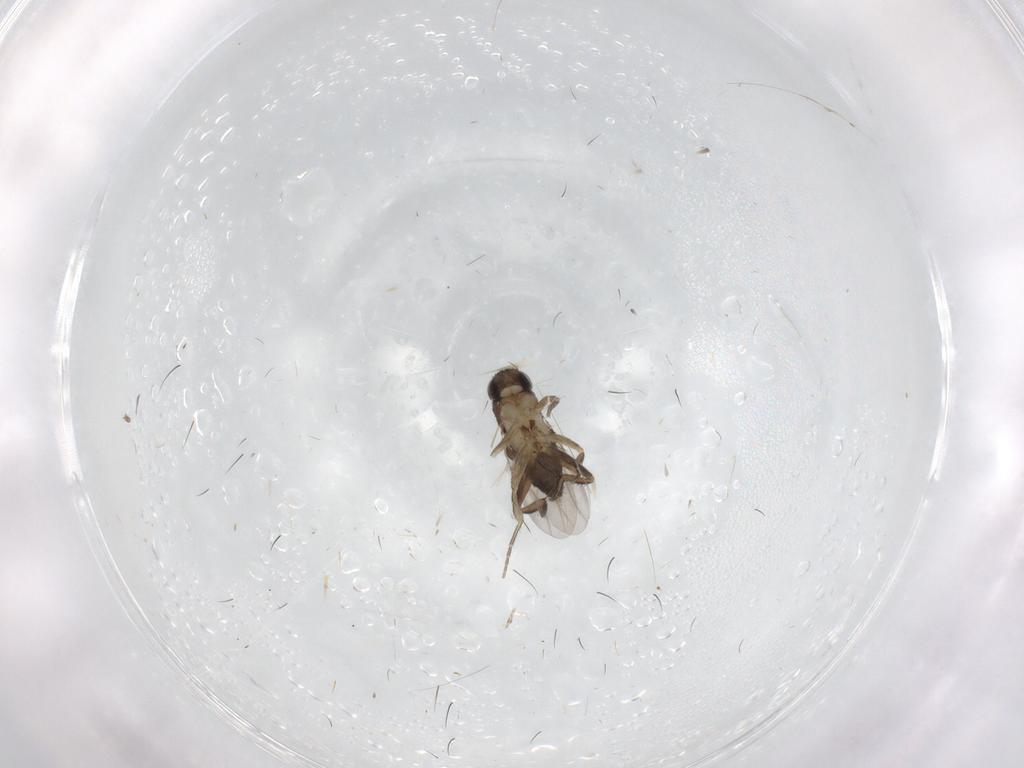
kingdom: Animalia
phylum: Arthropoda
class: Insecta
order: Diptera
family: Phoridae
